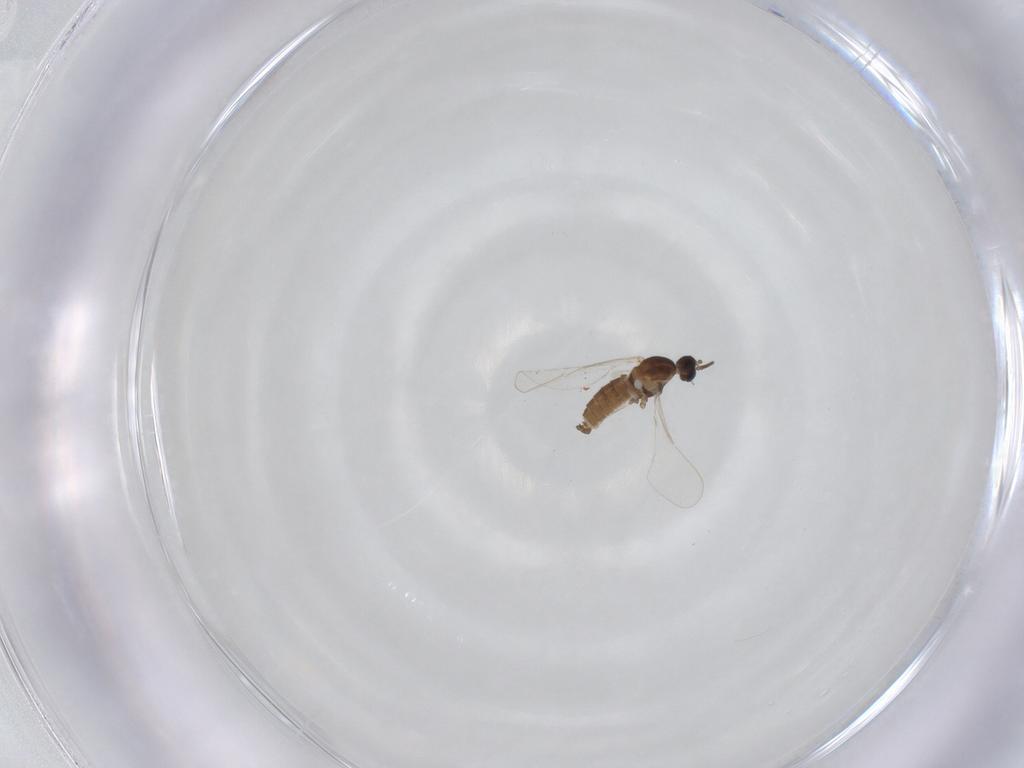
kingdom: Animalia
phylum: Arthropoda
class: Insecta
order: Diptera
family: Cecidomyiidae
